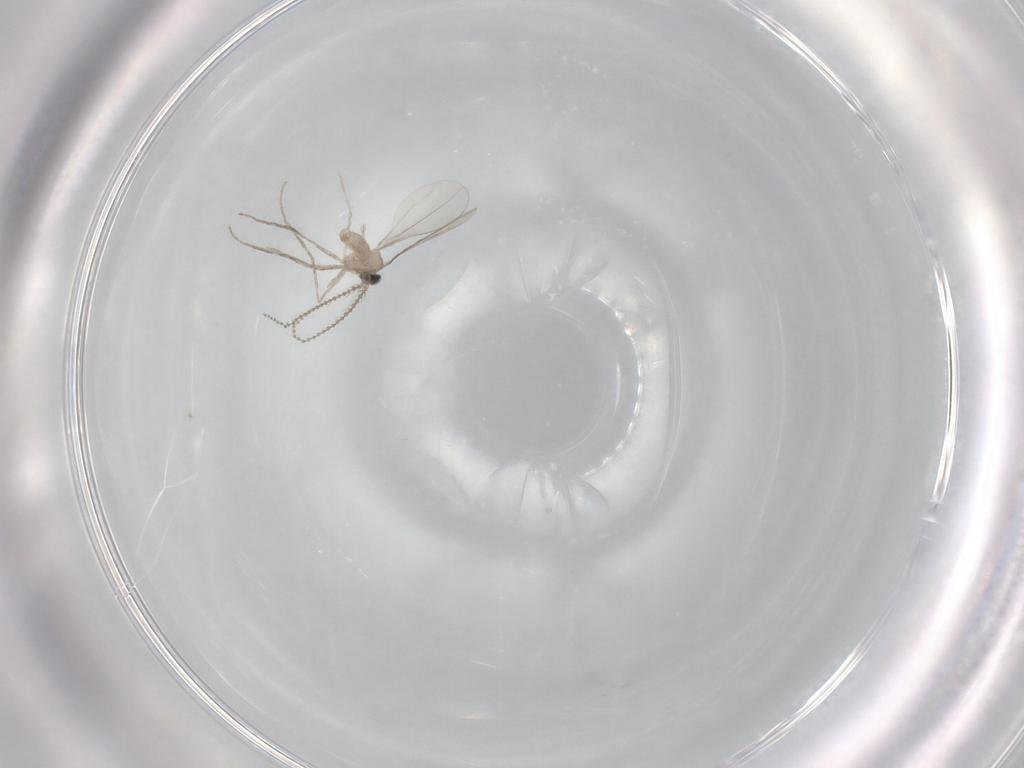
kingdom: Animalia
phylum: Arthropoda
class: Insecta
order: Diptera
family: Cecidomyiidae
